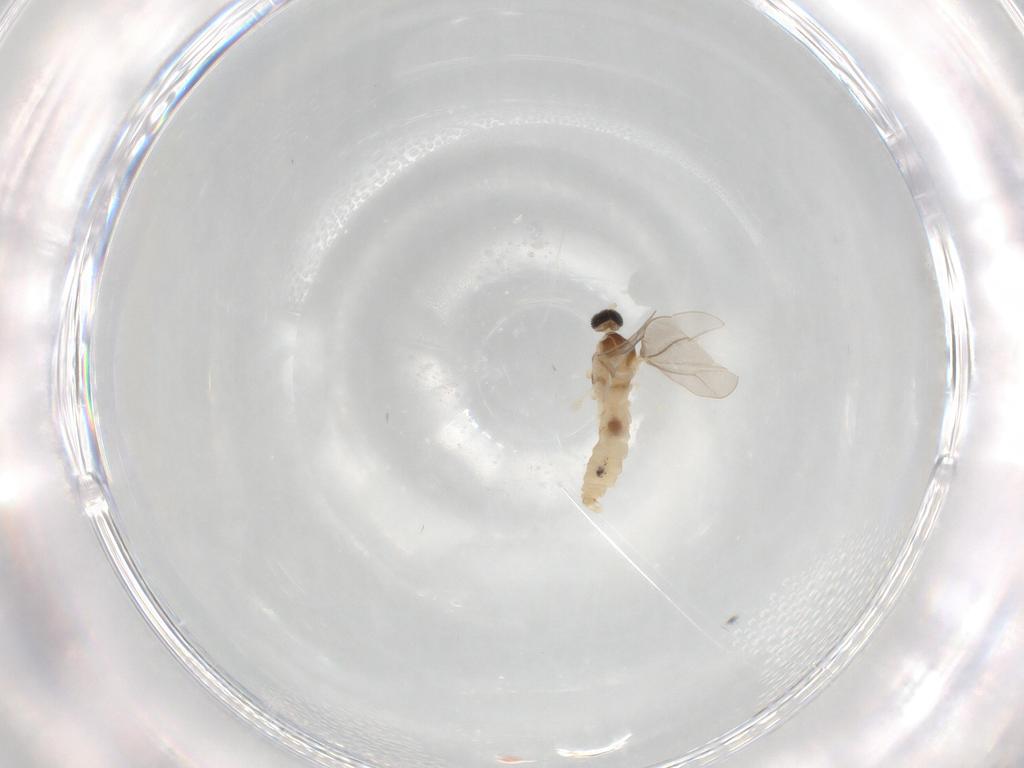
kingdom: Animalia
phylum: Arthropoda
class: Insecta
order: Diptera
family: Cecidomyiidae
